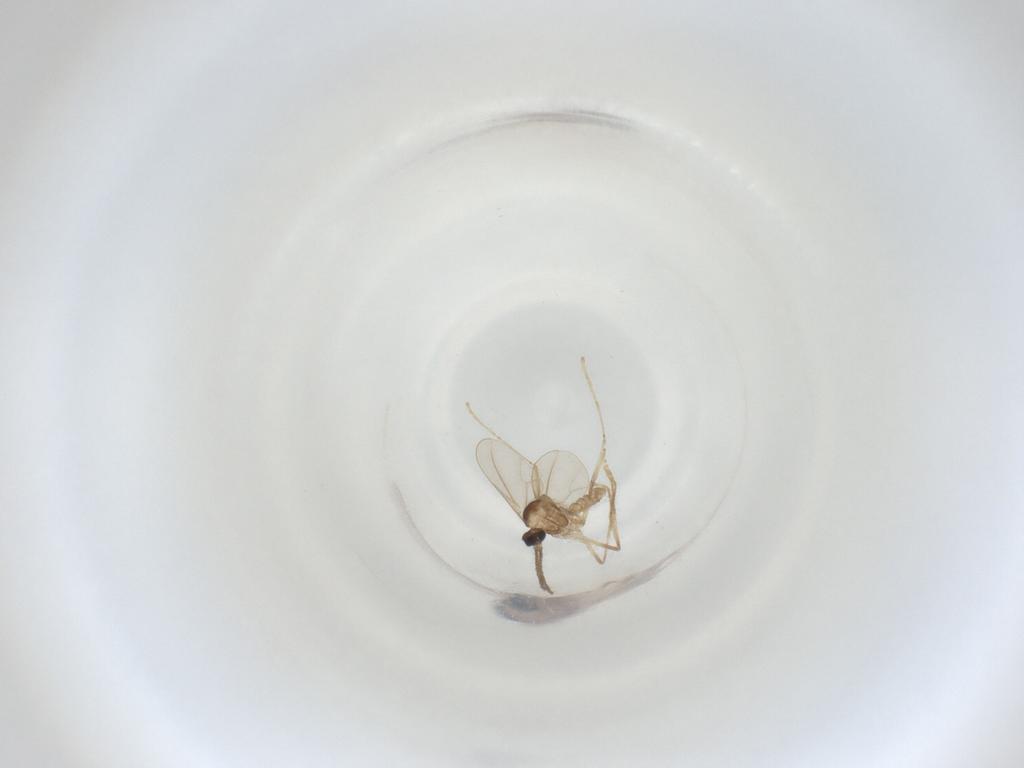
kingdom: Animalia
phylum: Arthropoda
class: Insecta
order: Diptera
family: Cecidomyiidae
